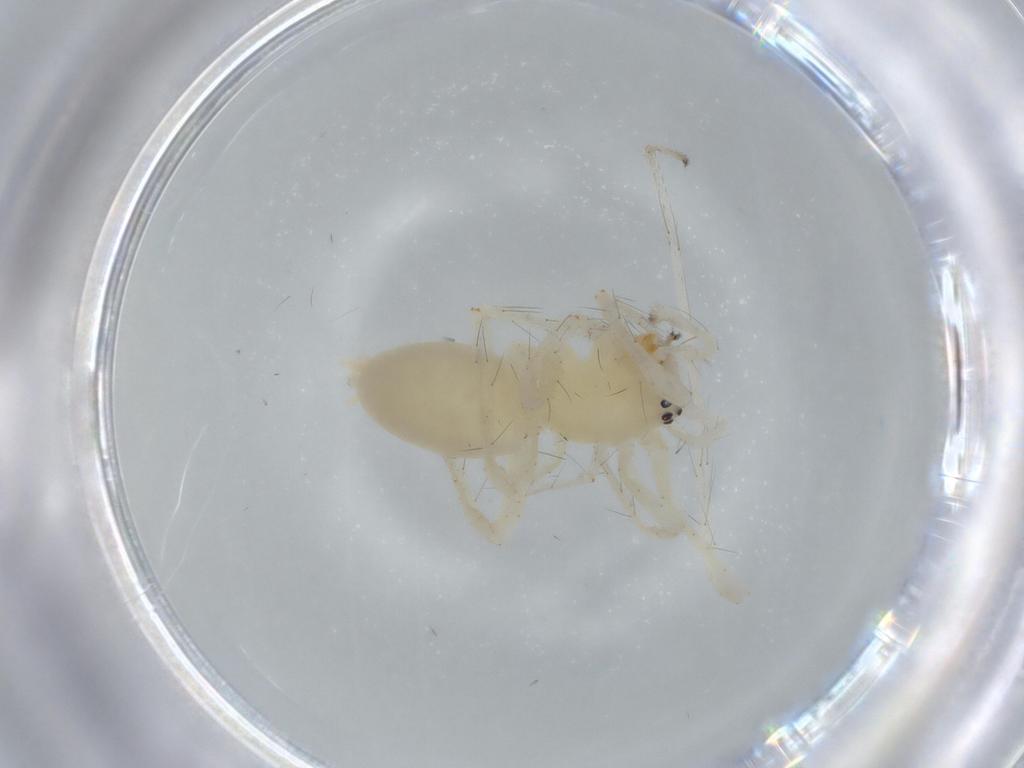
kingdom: Animalia
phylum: Arthropoda
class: Arachnida
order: Araneae
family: Anyphaenidae
